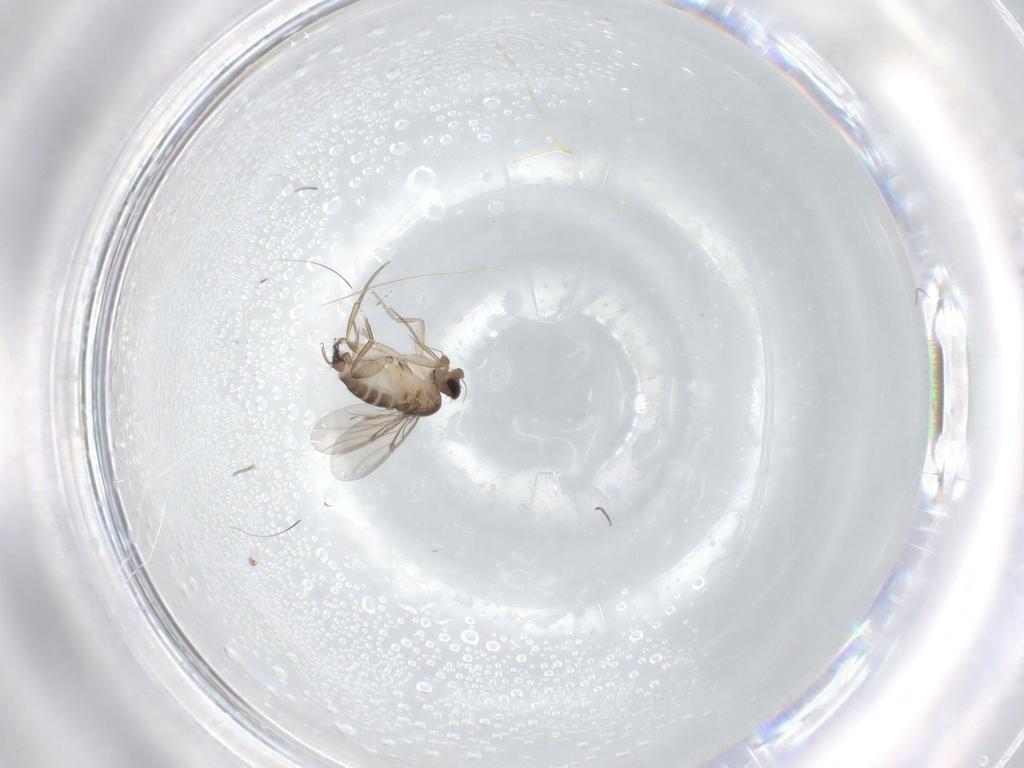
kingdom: Animalia
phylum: Arthropoda
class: Insecta
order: Diptera
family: Phoridae
